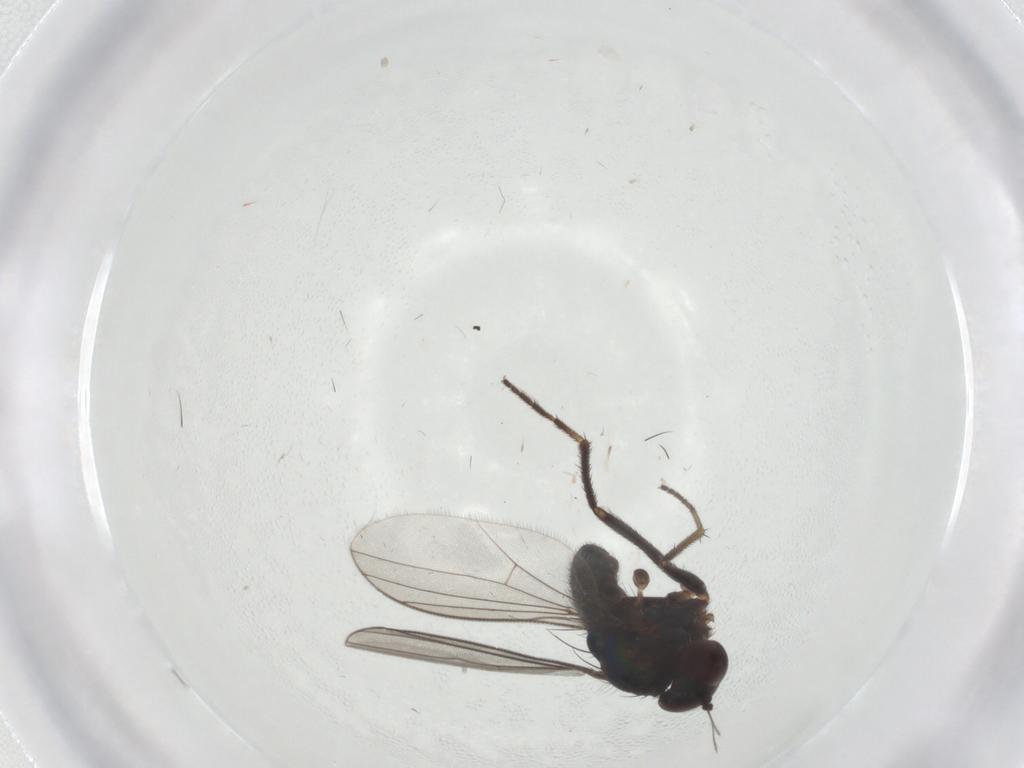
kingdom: Animalia
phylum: Arthropoda
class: Insecta
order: Diptera
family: Dolichopodidae
